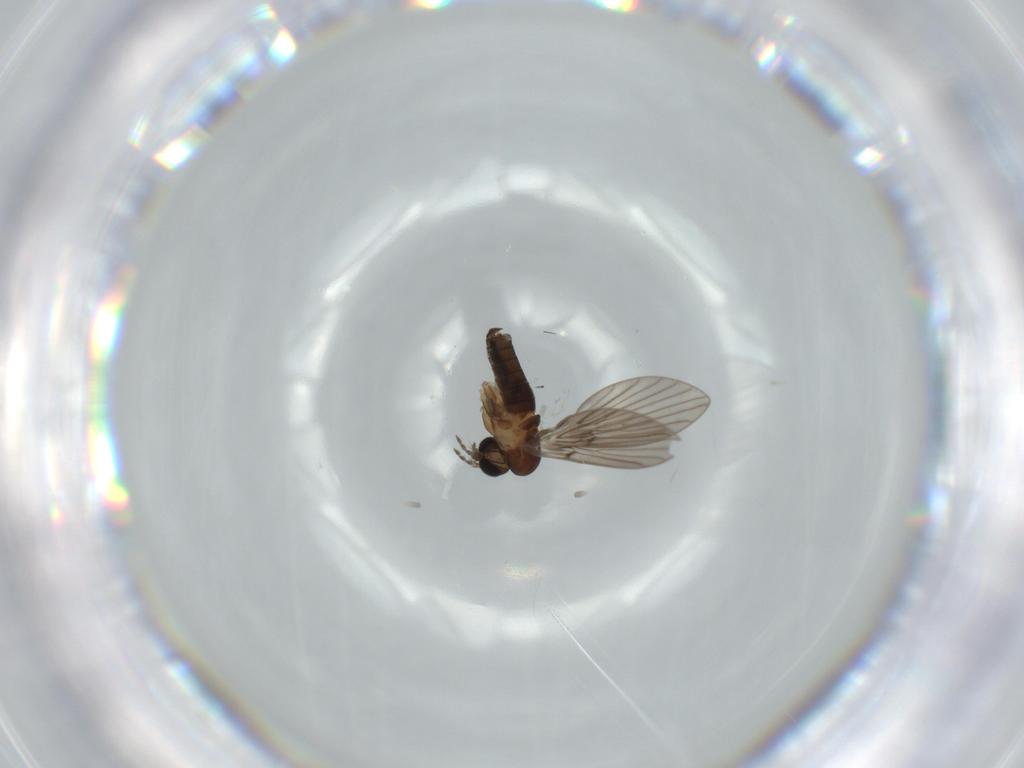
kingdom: Animalia
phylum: Arthropoda
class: Insecta
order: Diptera
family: Psychodidae
